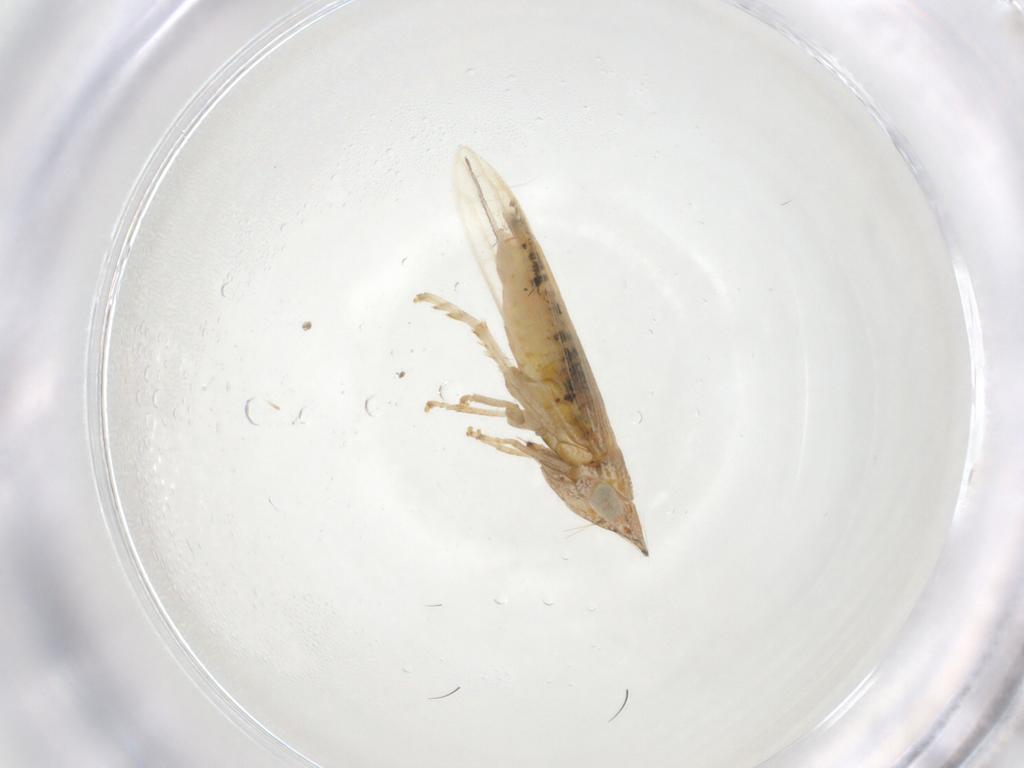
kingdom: Animalia
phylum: Arthropoda
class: Insecta
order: Hemiptera
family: Cicadellidae
